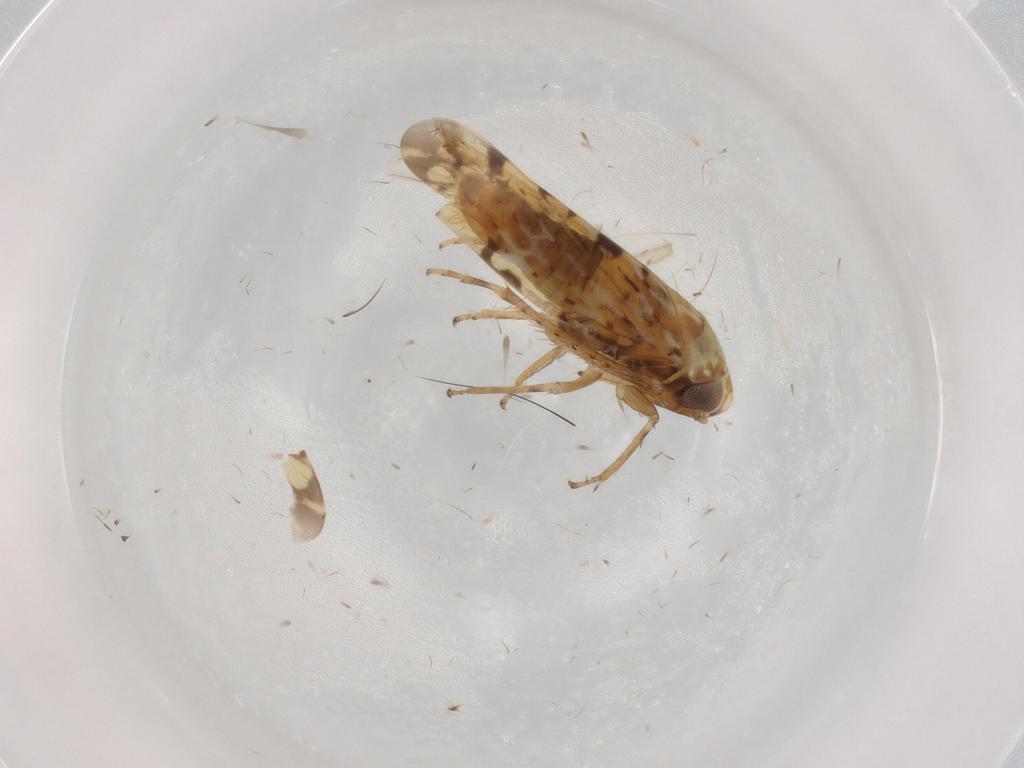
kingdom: Animalia
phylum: Arthropoda
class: Insecta
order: Hemiptera
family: Cicadellidae
